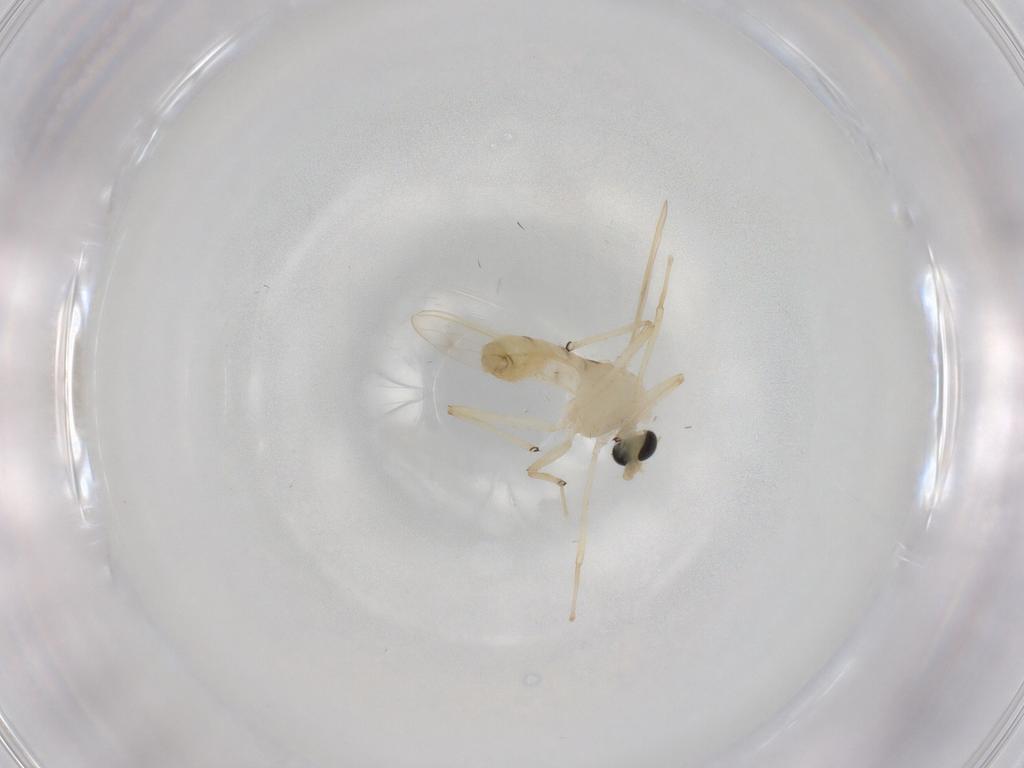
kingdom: Animalia
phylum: Arthropoda
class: Insecta
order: Diptera
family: Chironomidae
